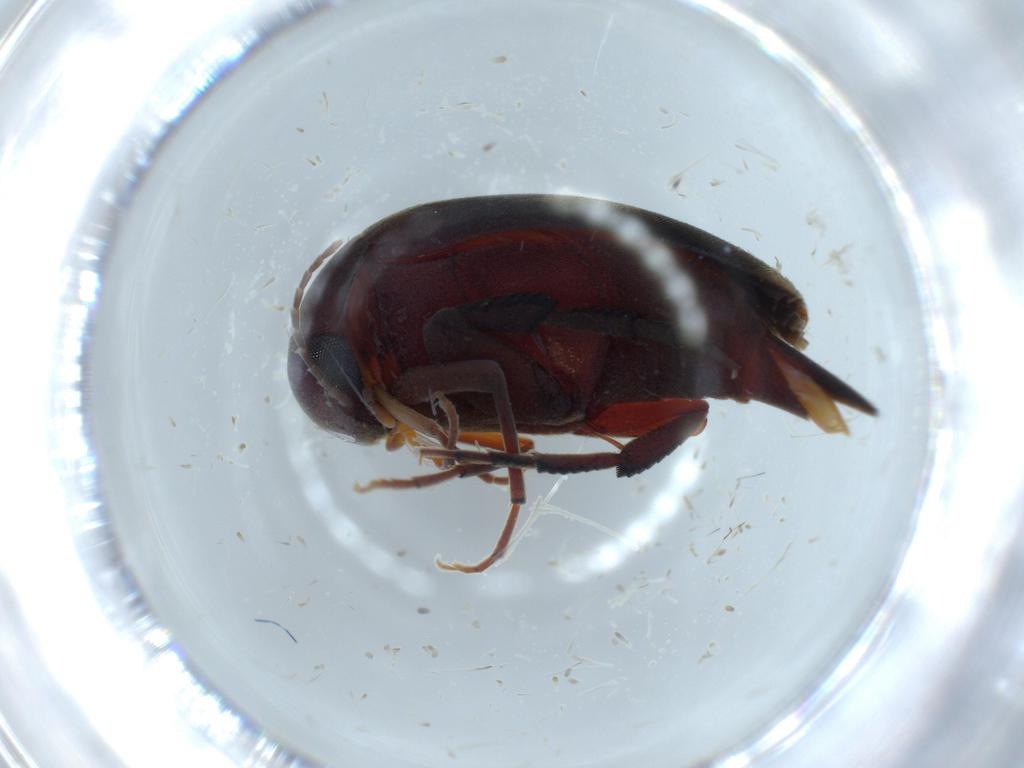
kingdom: Animalia
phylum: Arthropoda
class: Insecta
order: Coleoptera
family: Mordellidae
